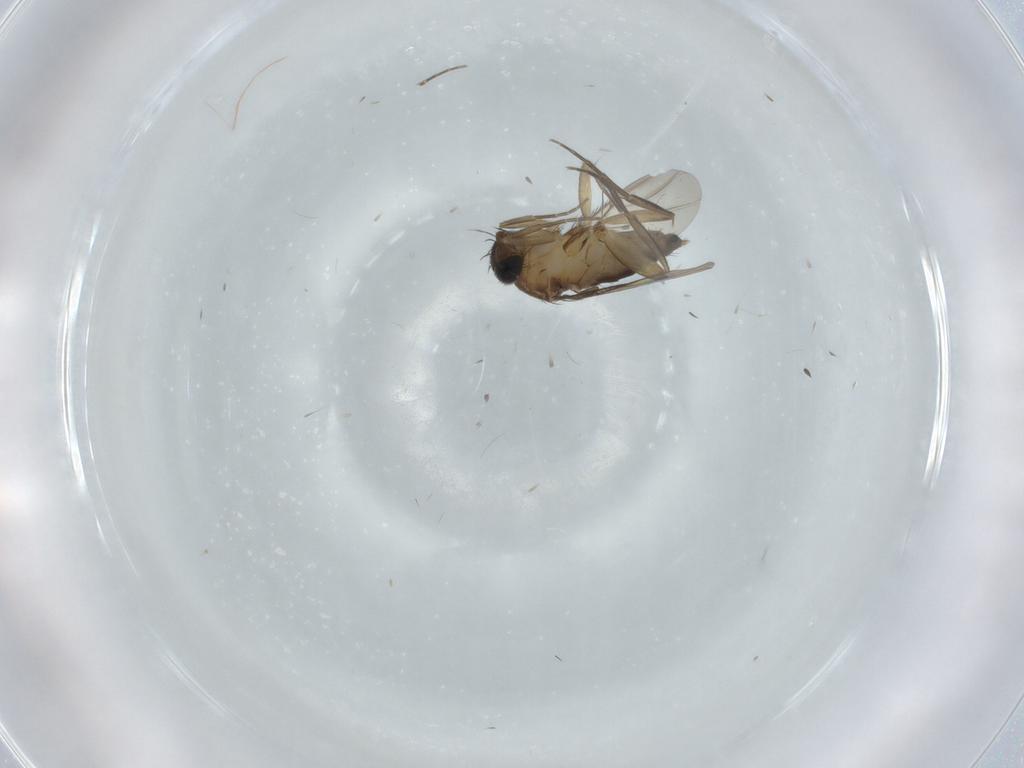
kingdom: Animalia
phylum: Arthropoda
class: Insecta
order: Diptera
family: Phoridae
